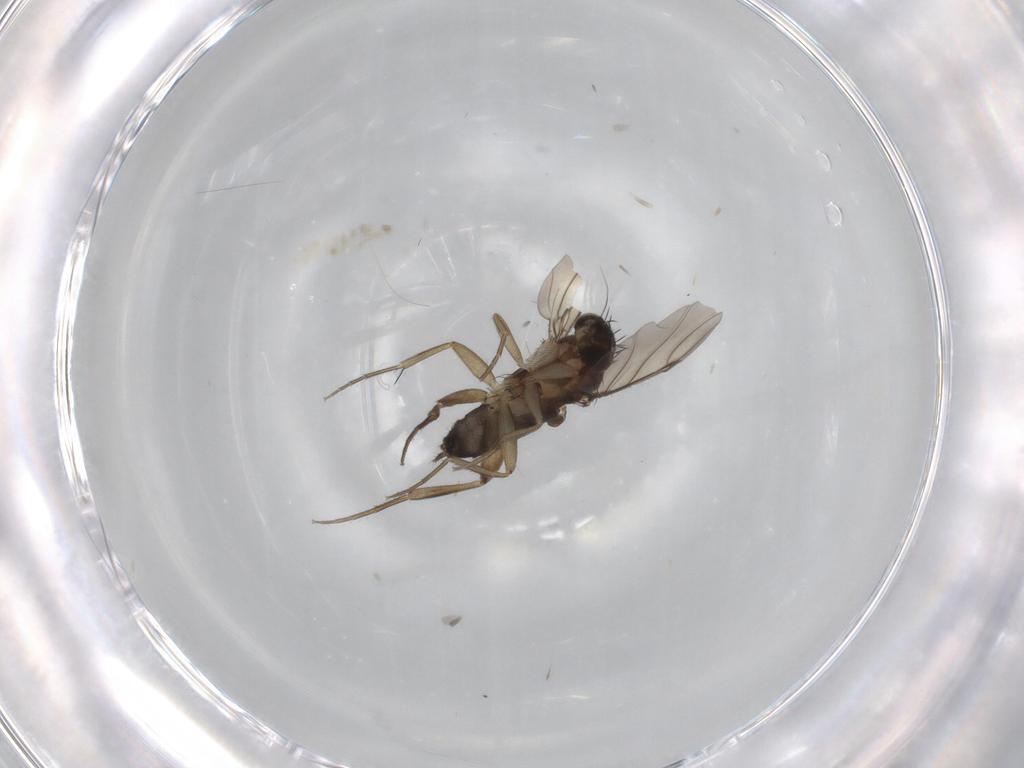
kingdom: Animalia
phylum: Arthropoda
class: Insecta
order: Diptera
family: Phoridae
